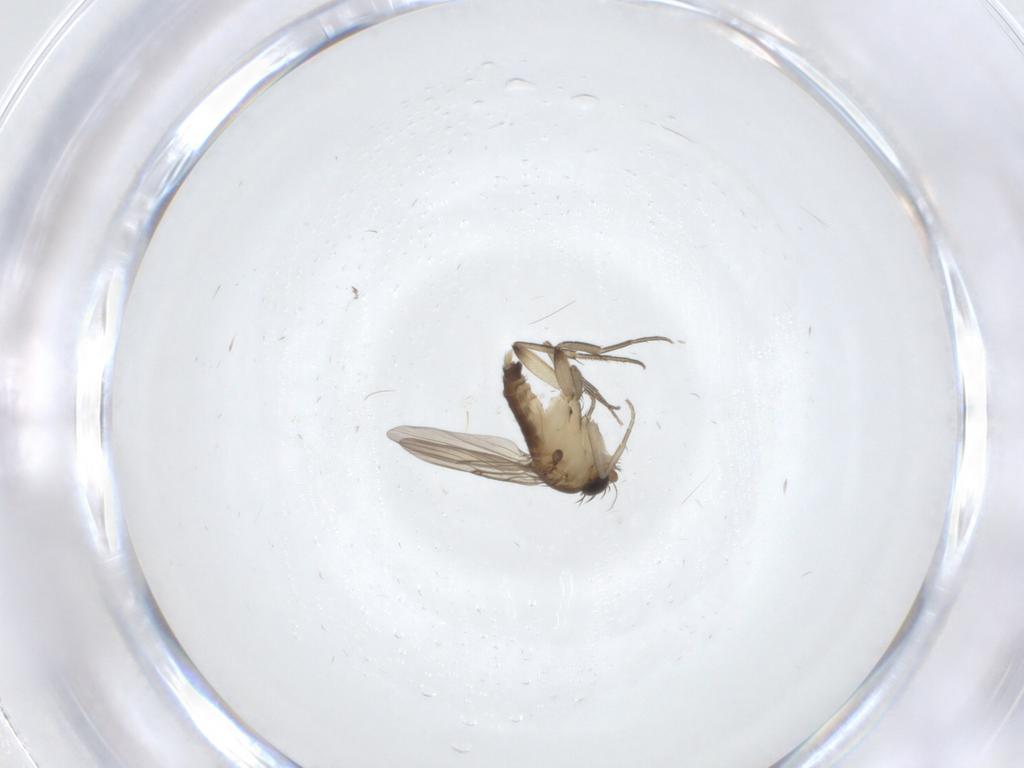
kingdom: Animalia
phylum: Arthropoda
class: Insecta
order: Diptera
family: Chironomidae
